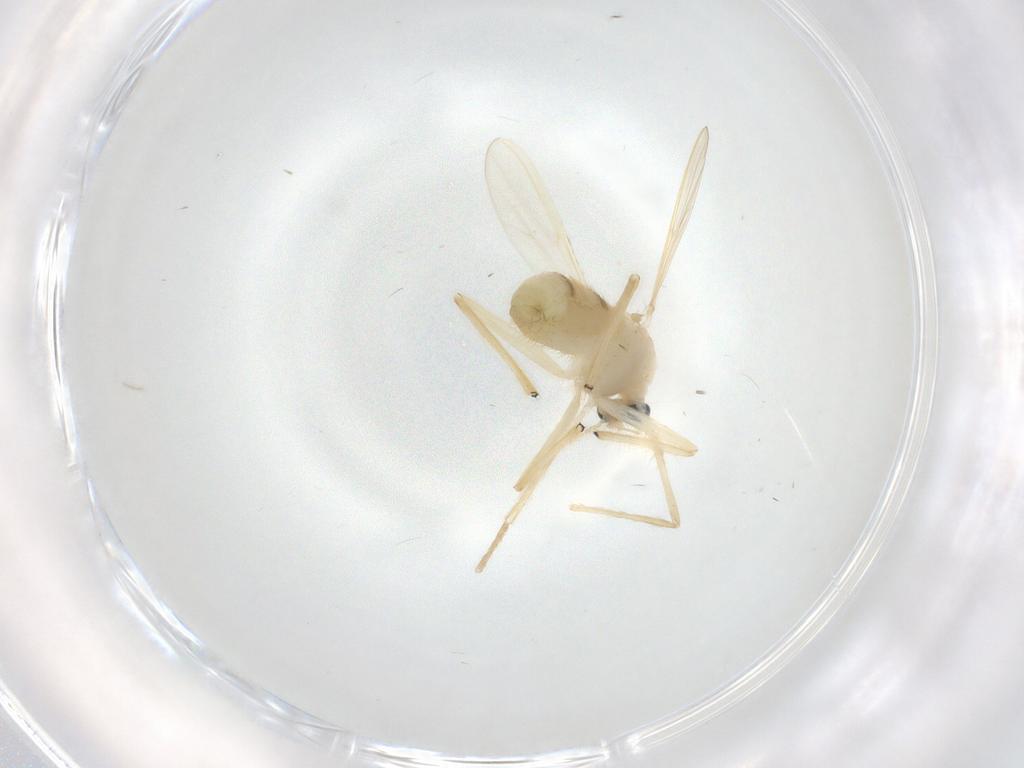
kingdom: Animalia
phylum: Arthropoda
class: Insecta
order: Diptera
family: Chironomidae
